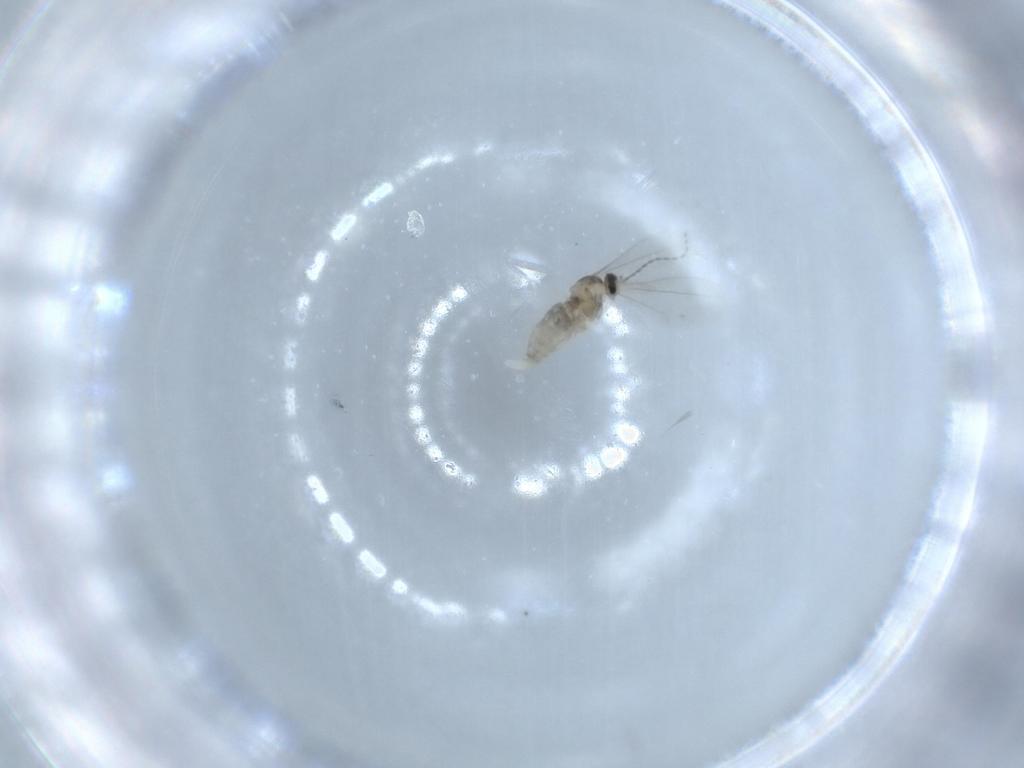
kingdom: Animalia
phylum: Arthropoda
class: Insecta
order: Diptera
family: Cecidomyiidae
